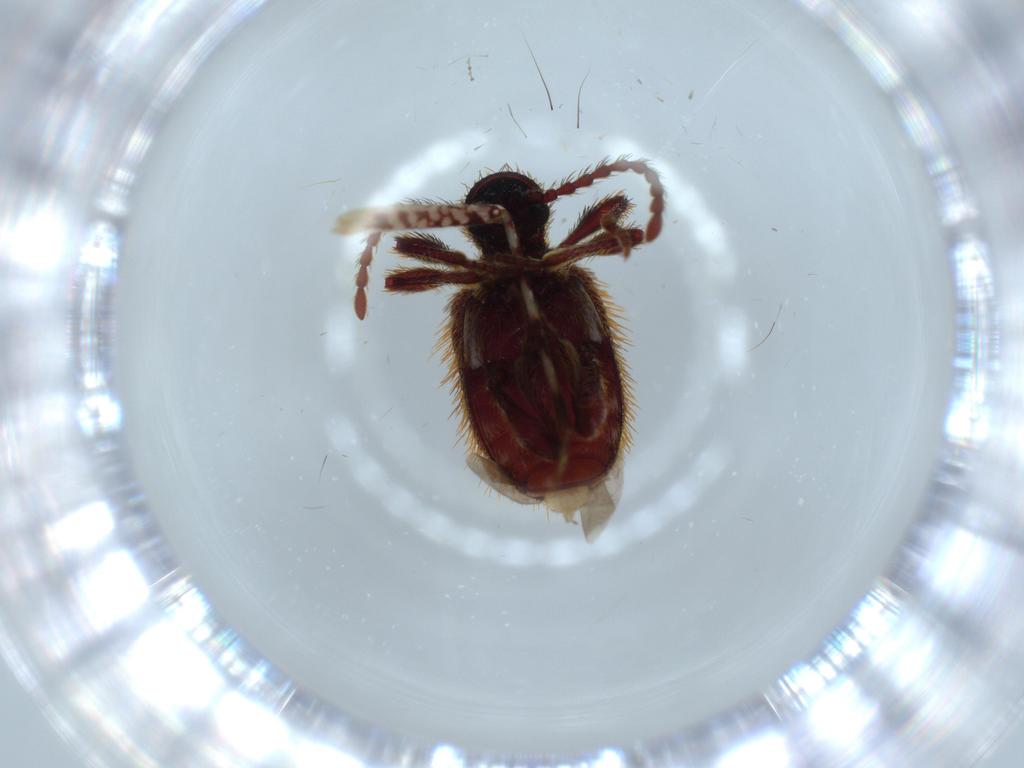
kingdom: Animalia
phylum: Arthropoda
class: Insecta
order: Coleoptera
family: Ptinidae
